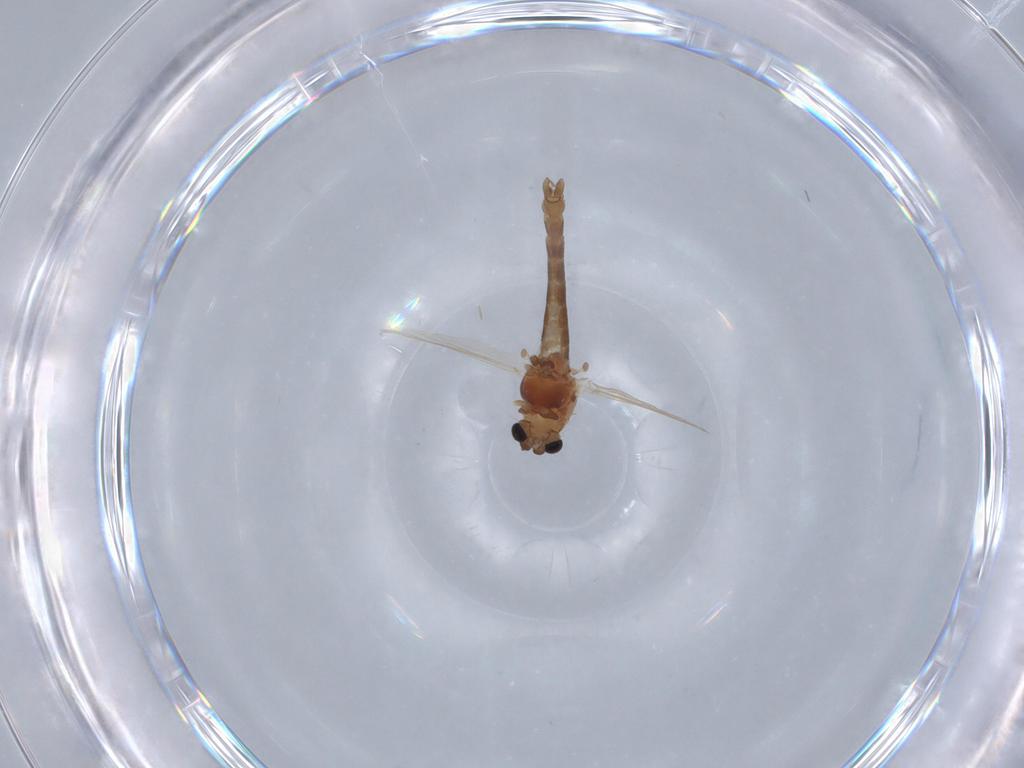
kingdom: Animalia
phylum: Arthropoda
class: Insecta
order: Diptera
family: Chironomidae
